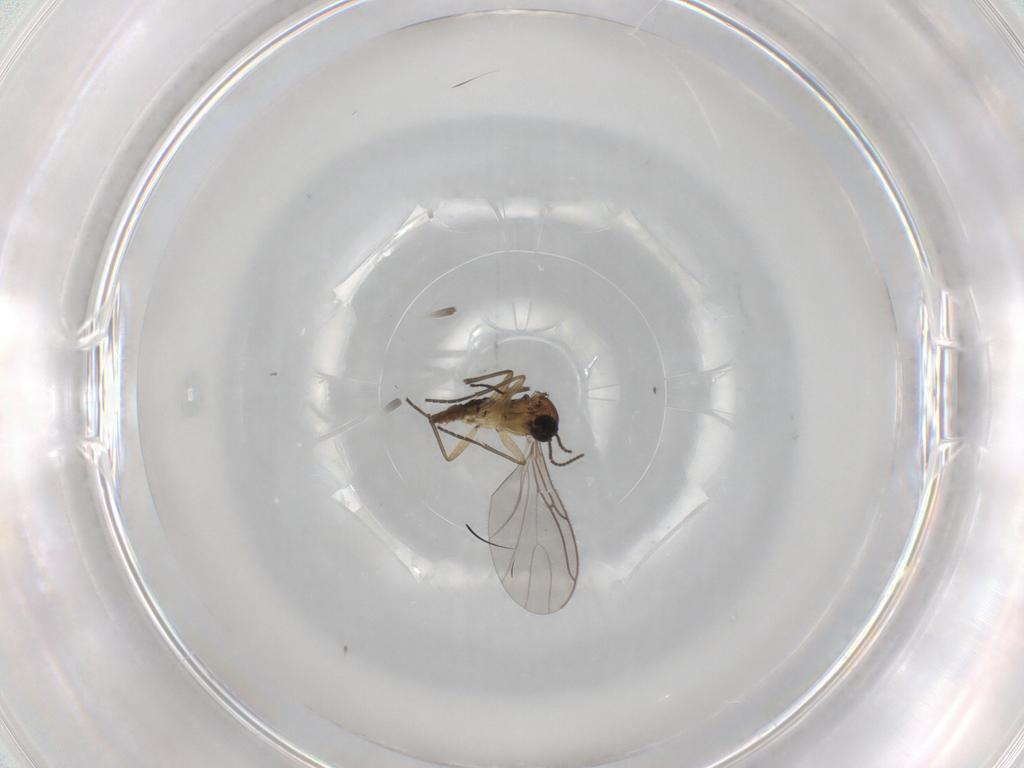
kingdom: Animalia
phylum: Arthropoda
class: Insecta
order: Diptera
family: Sciaridae
